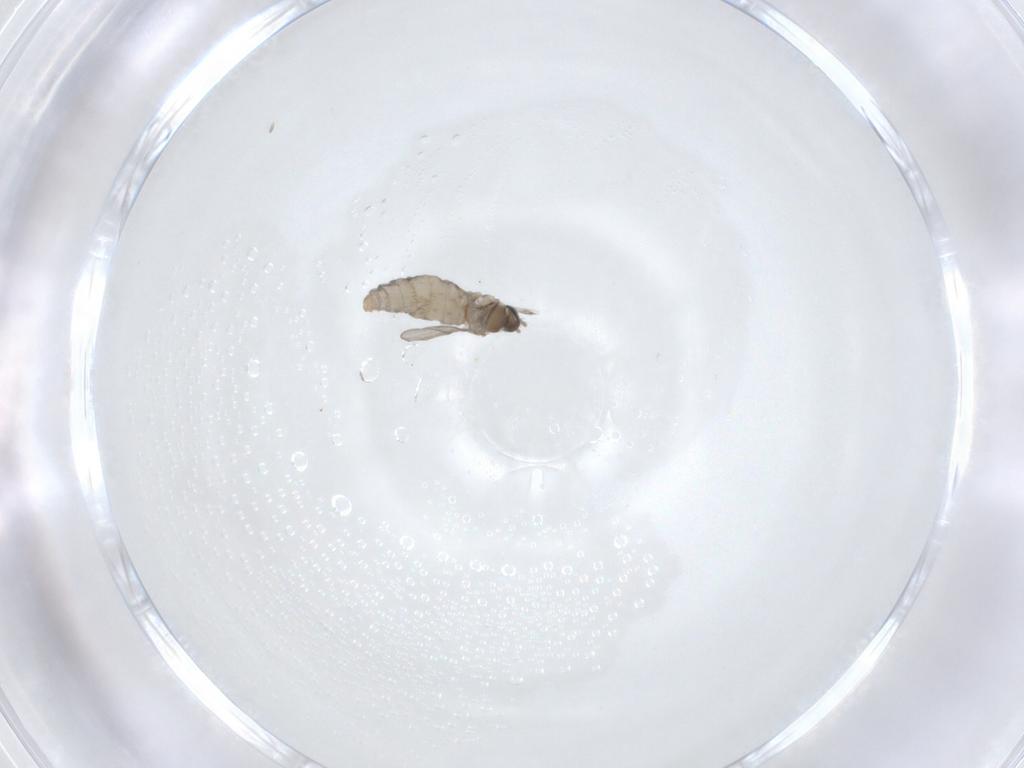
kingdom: Animalia
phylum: Arthropoda
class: Insecta
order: Diptera
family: Cecidomyiidae
